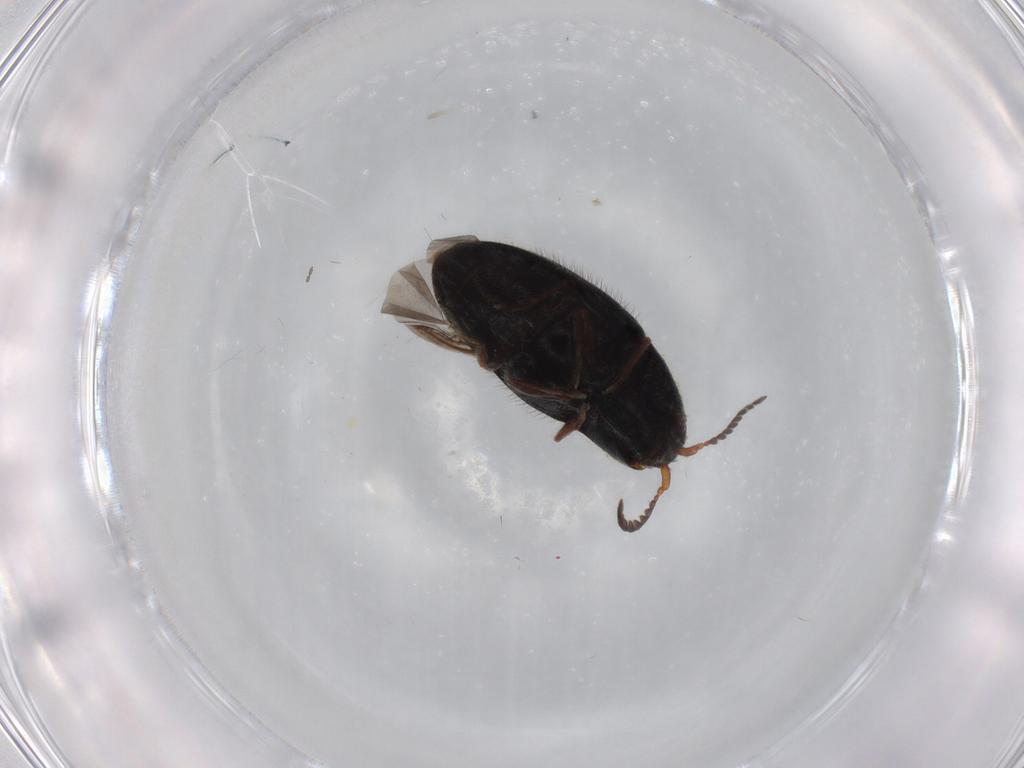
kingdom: Animalia
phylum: Arthropoda
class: Insecta
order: Coleoptera
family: Elateridae
